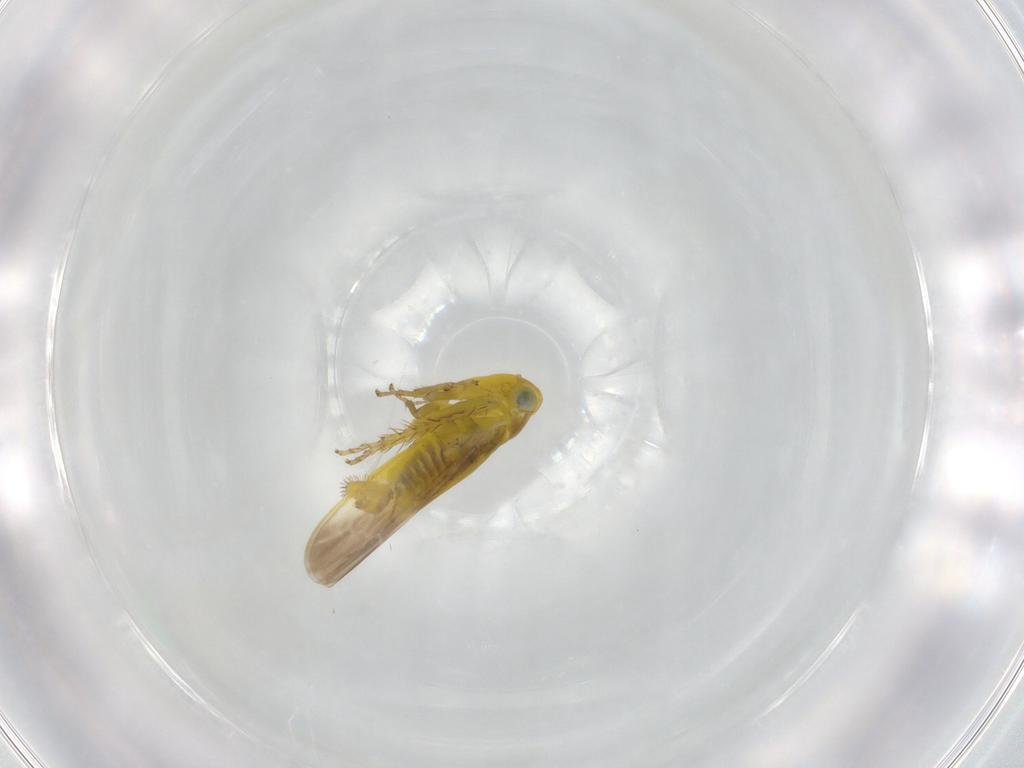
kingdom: Animalia
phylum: Arthropoda
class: Insecta
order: Hemiptera
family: Cicadellidae
